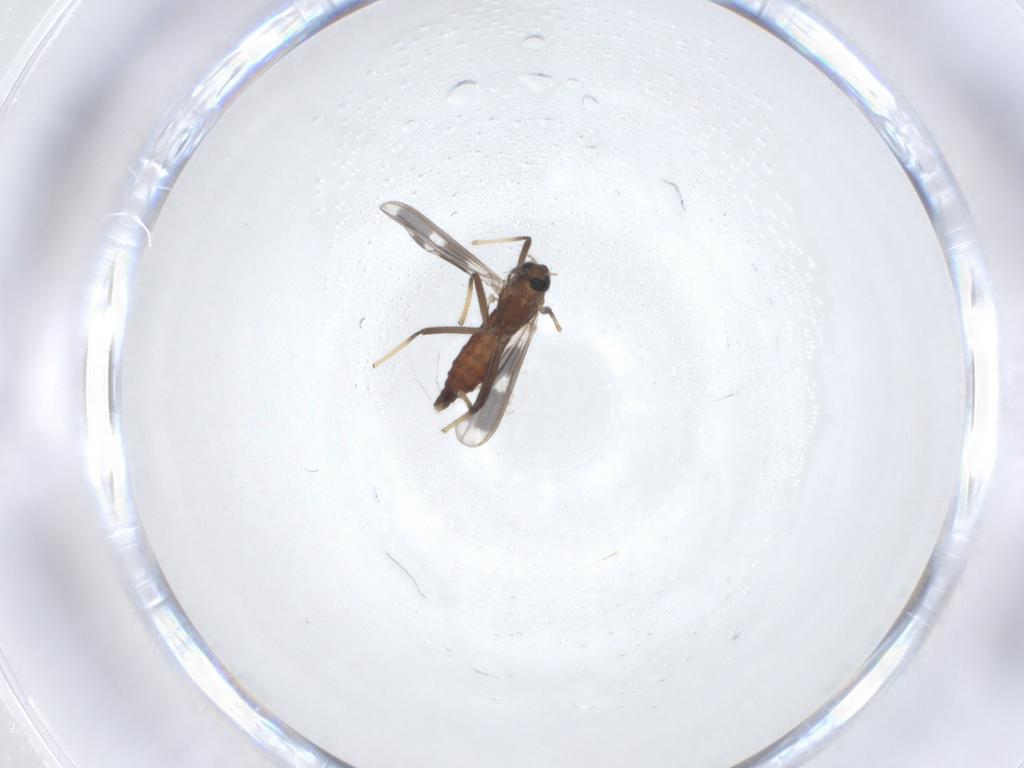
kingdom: Animalia
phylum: Arthropoda
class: Insecta
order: Diptera
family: Chironomidae
